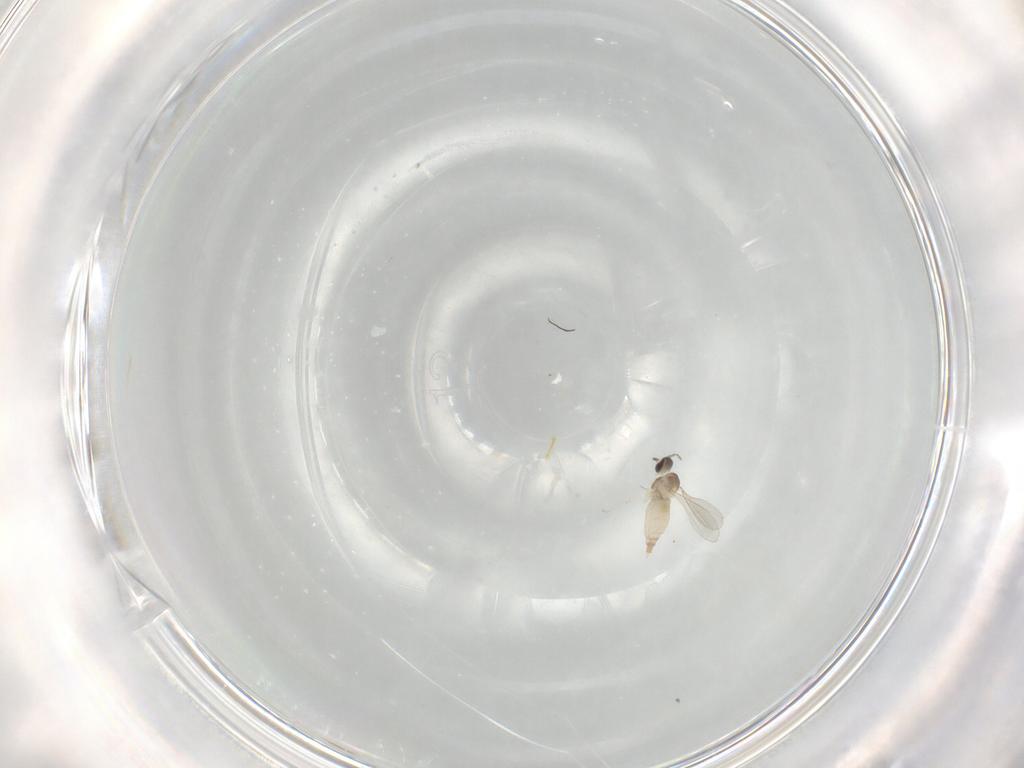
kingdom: Animalia
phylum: Arthropoda
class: Insecta
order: Diptera
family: Cecidomyiidae
